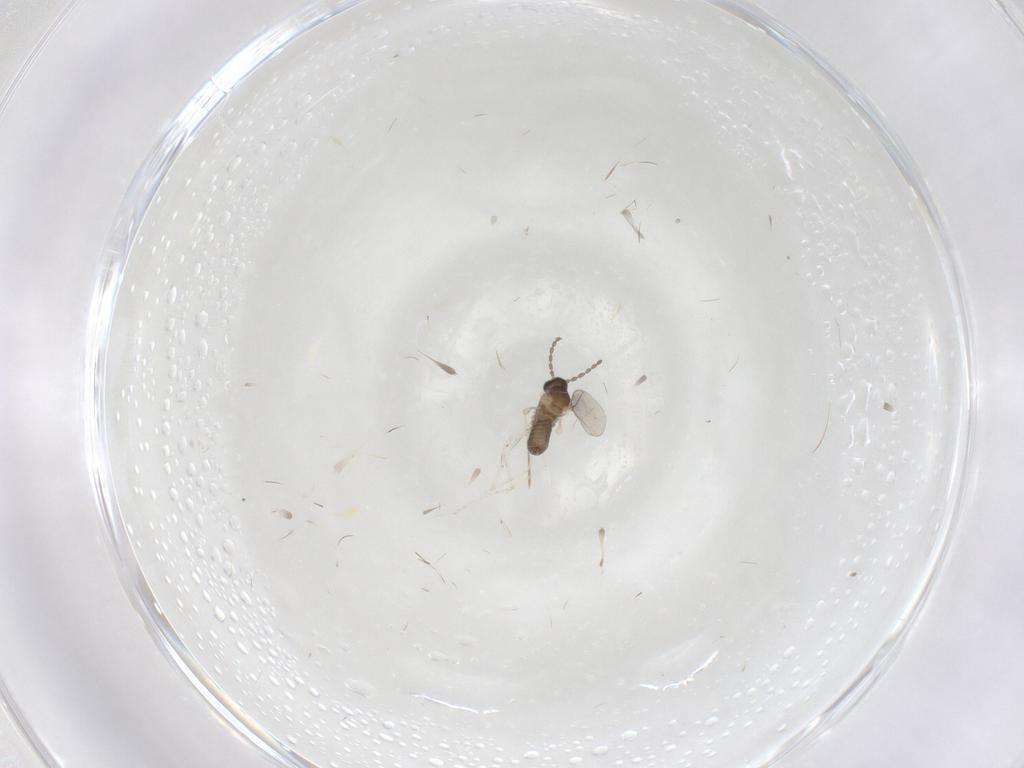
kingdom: Animalia
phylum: Arthropoda
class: Insecta
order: Diptera
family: Cecidomyiidae
